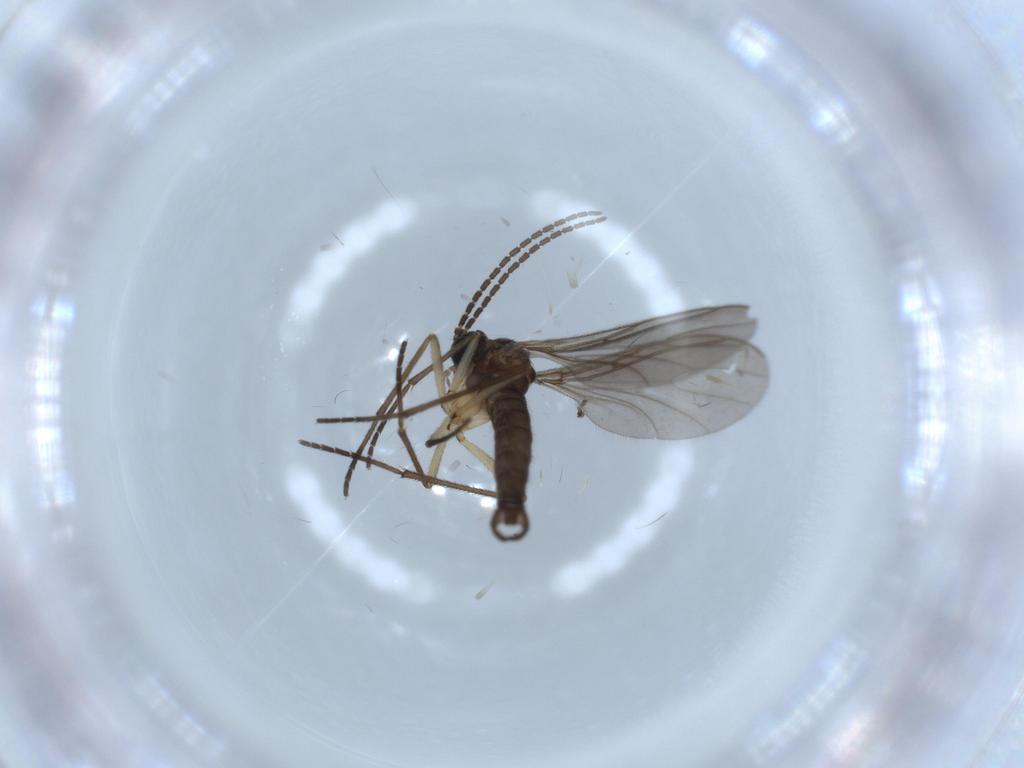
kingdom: Animalia
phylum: Arthropoda
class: Insecta
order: Diptera
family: Sciaridae
